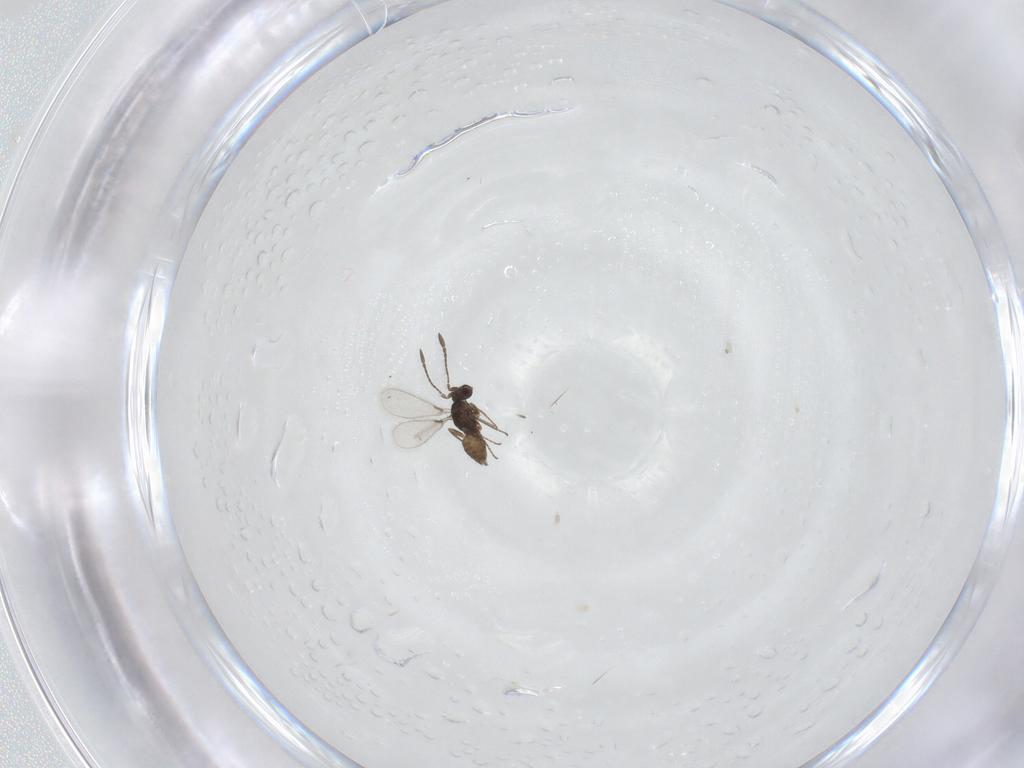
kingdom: Animalia
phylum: Arthropoda
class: Insecta
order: Hymenoptera
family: Mymaridae
